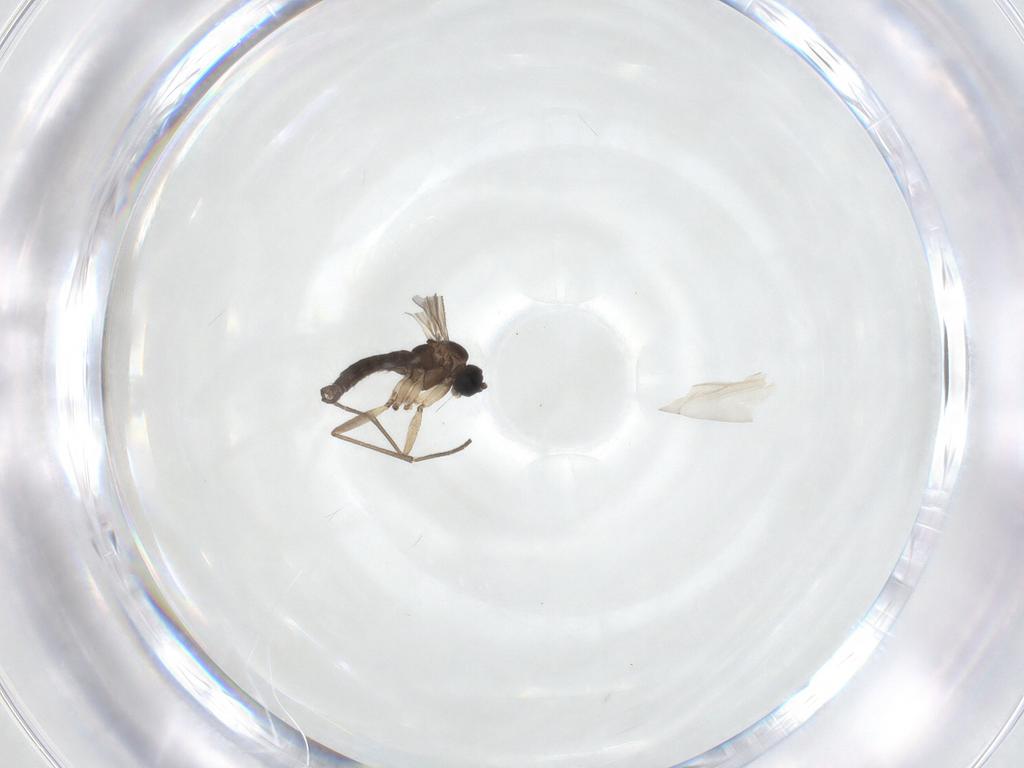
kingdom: Animalia
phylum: Arthropoda
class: Insecta
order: Diptera
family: Sciaridae
